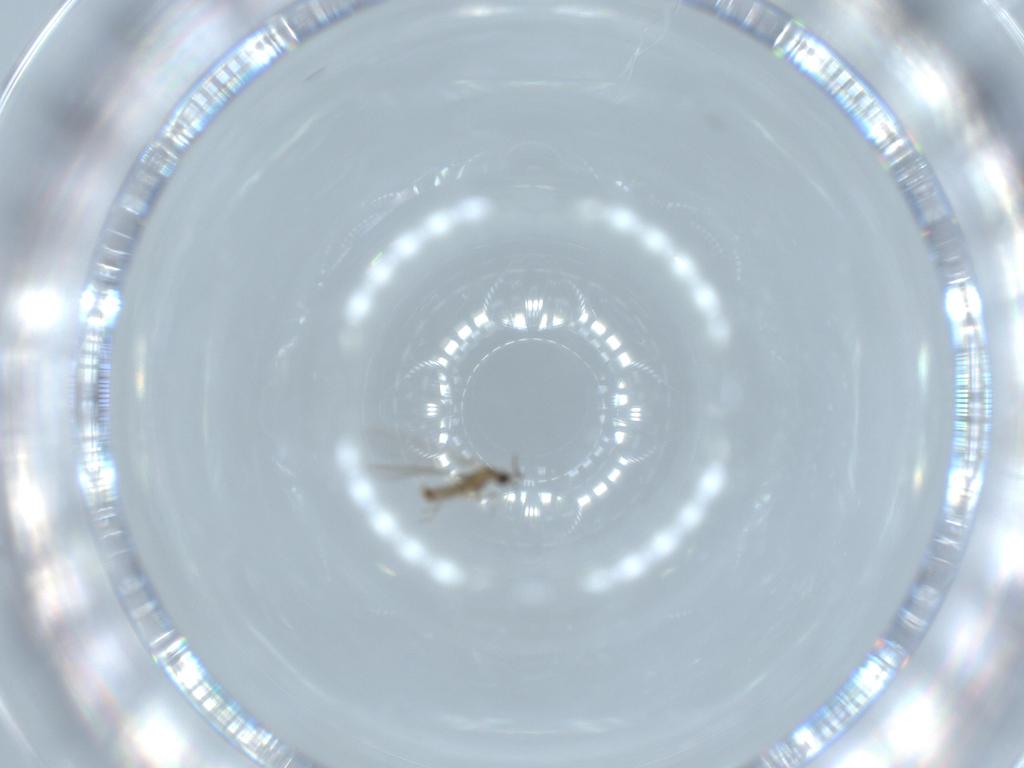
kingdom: Animalia
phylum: Arthropoda
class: Insecta
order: Diptera
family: Cecidomyiidae
